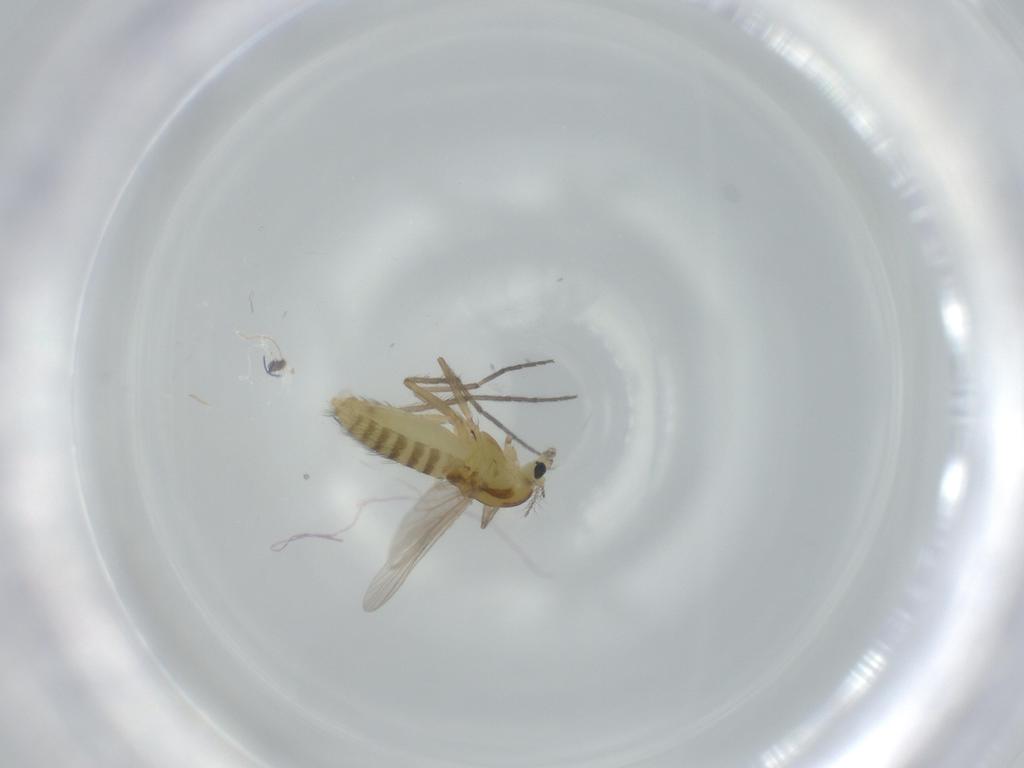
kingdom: Animalia
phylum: Arthropoda
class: Insecta
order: Diptera
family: Chironomidae
